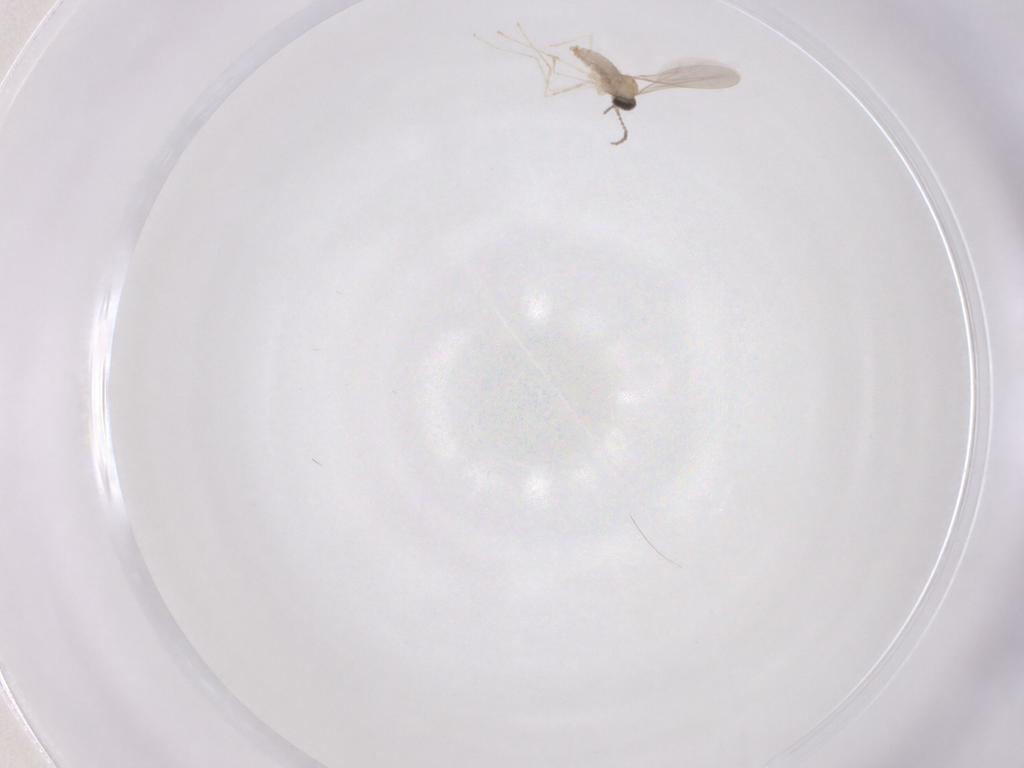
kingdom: Animalia
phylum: Arthropoda
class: Insecta
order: Diptera
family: Cecidomyiidae
